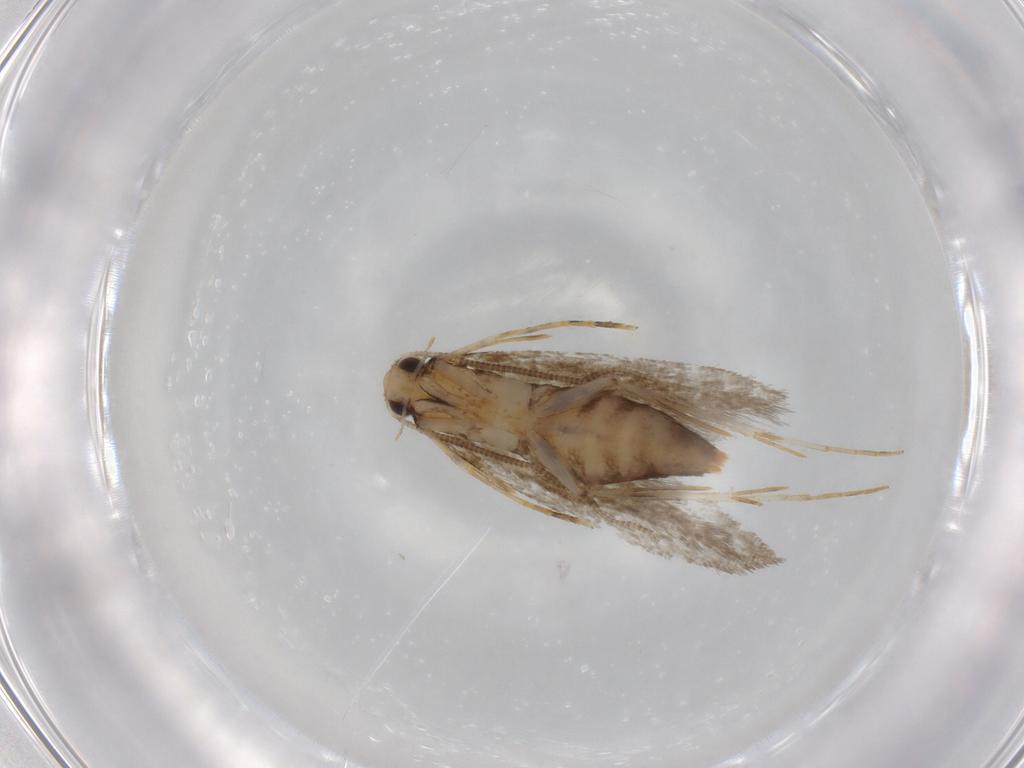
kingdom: Animalia
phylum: Arthropoda
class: Insecta
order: Lepidoptera
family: Meessiidae
